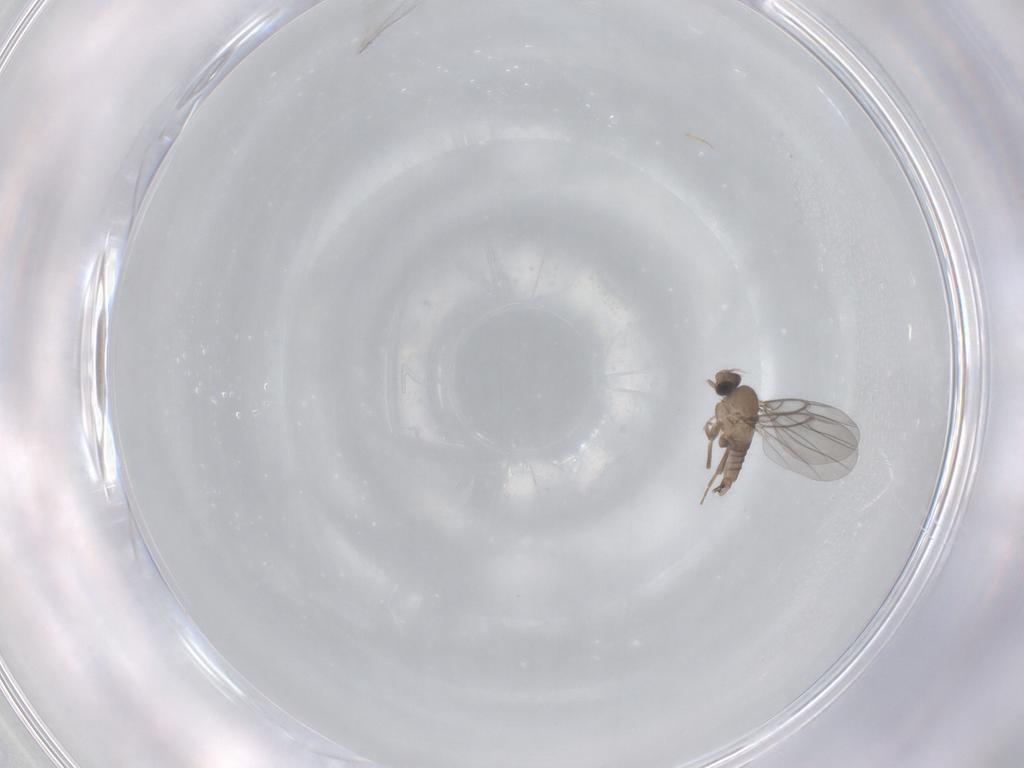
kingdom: Animalia
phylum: Arthropoda
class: Insecta
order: Diptera
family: Cecidomyiidae
